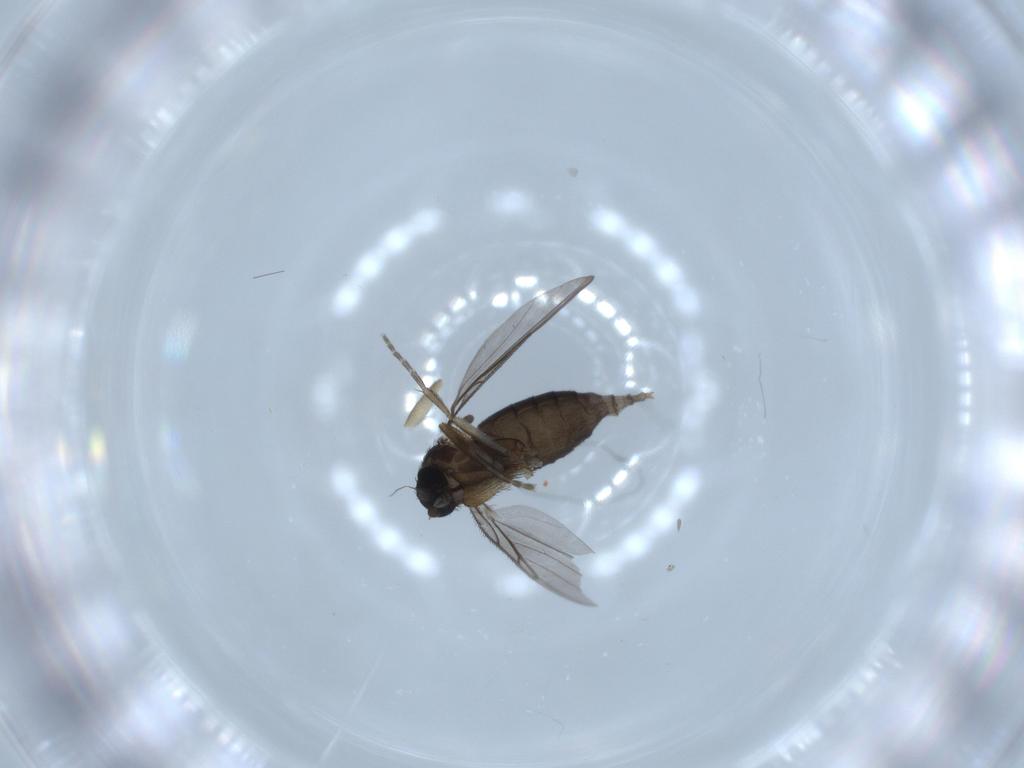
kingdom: Animalia
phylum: Arthropoda
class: Insecta
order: Diptera
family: Phoridae
